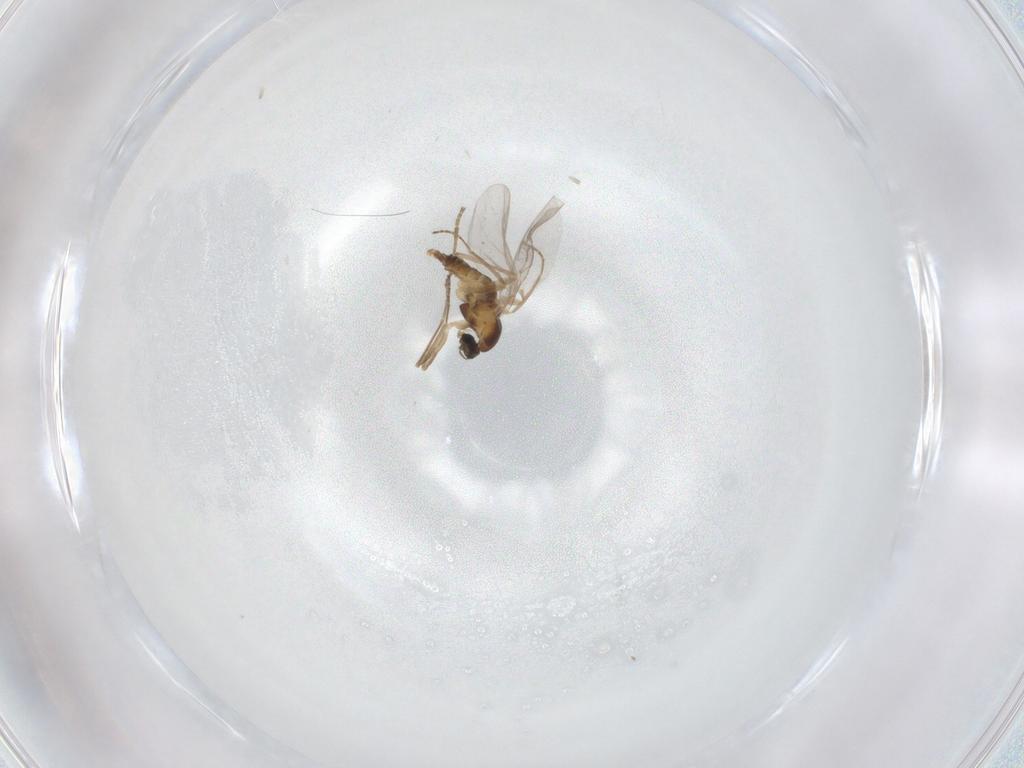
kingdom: Animalia
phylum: Arthropoda
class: Insecta
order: Diptera
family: Cecidomyiidae
